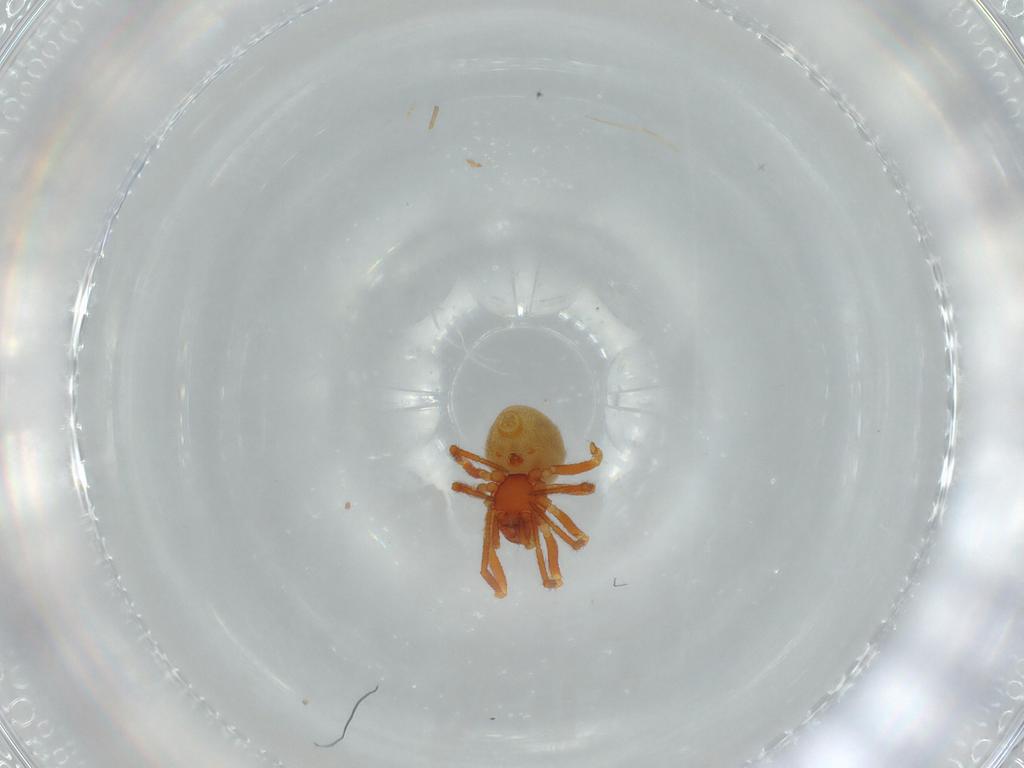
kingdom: Animalia
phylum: Arthropoda
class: Arachnida
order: Araneae
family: Theridiidae
